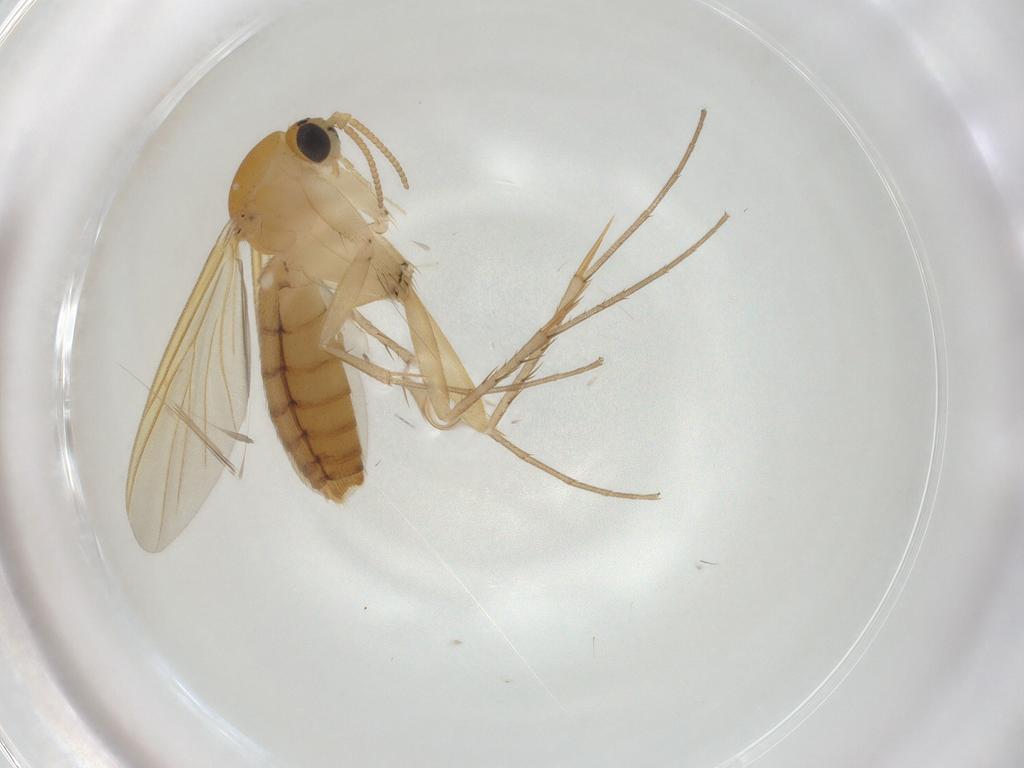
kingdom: Animalia
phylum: Arthropoda
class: Insecta
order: Diptera
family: Mycetophilidae
